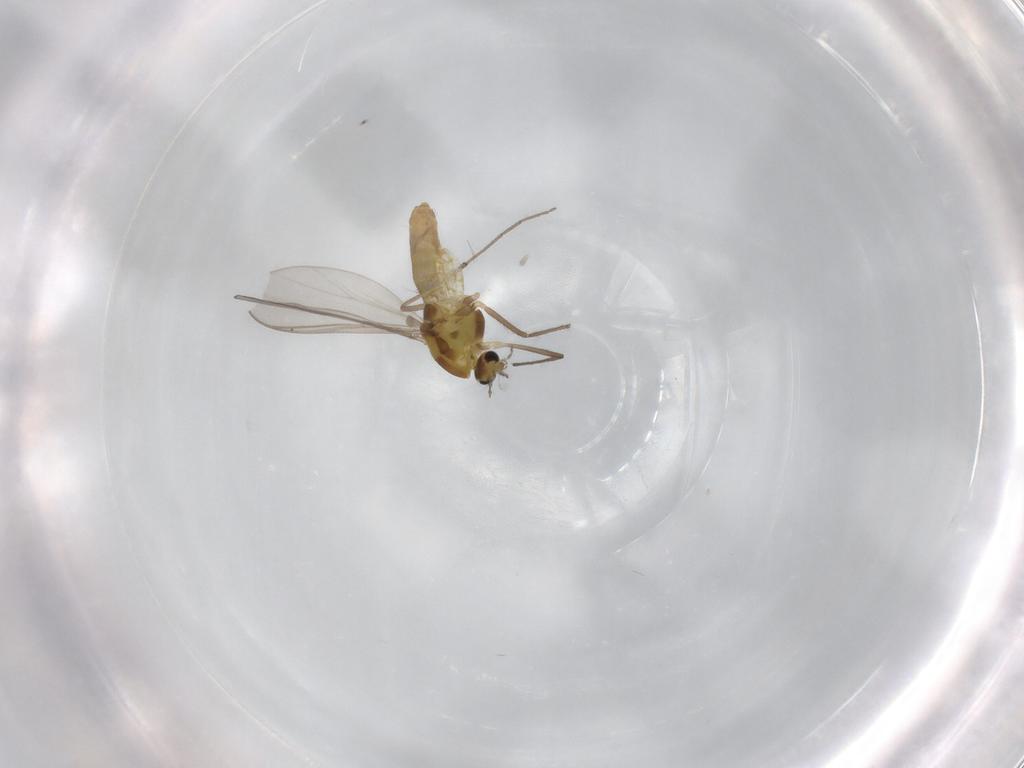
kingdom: Animalia
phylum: Arthropoda
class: Insecta
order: Diptera
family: Chironomidae
